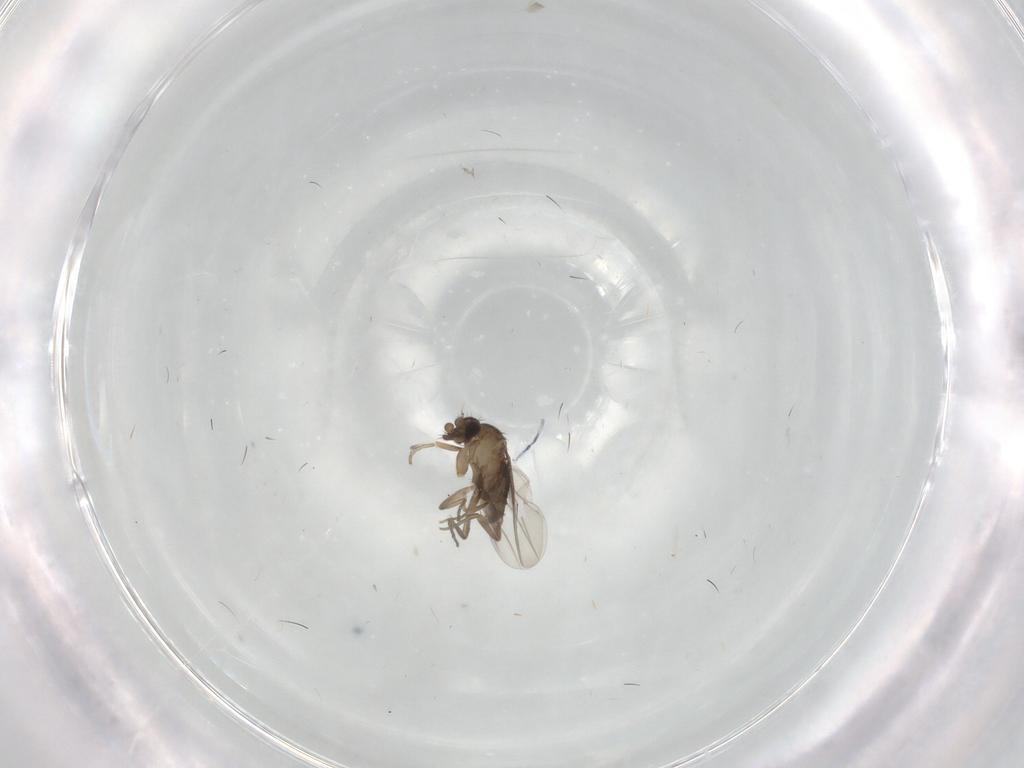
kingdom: Animalia
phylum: Arthropoda
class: Insecta
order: Diptera
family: Phoridae
